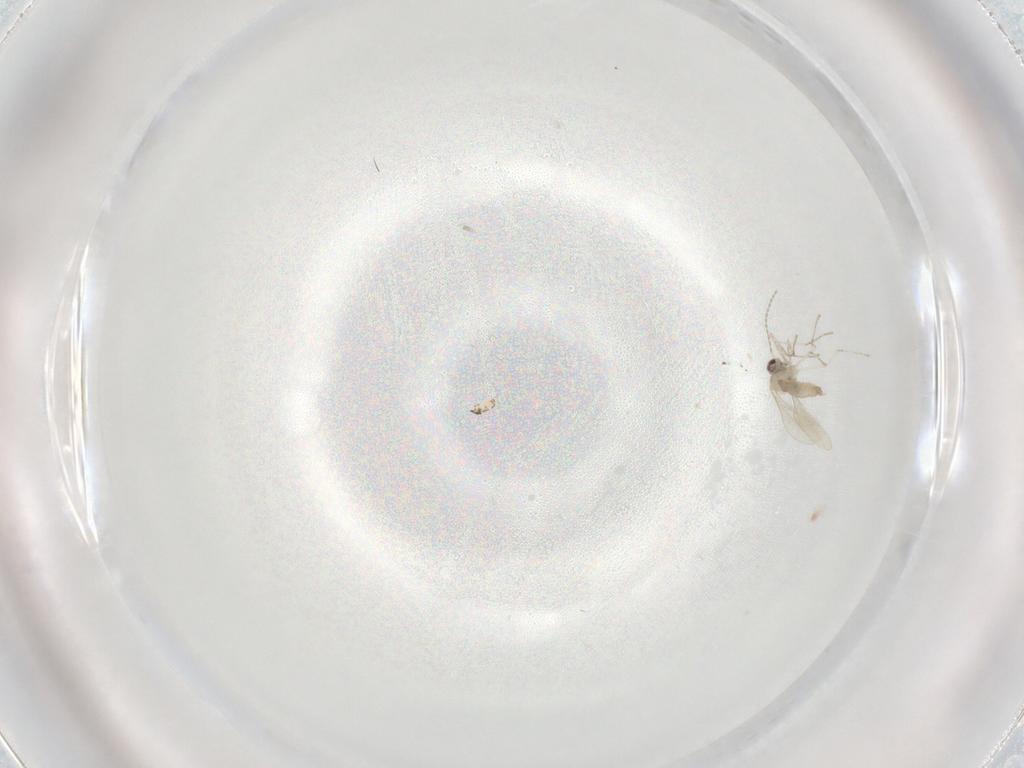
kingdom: Animalia
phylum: Arthropoda
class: Insecta
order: Diptera
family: Cecidomyiidae
